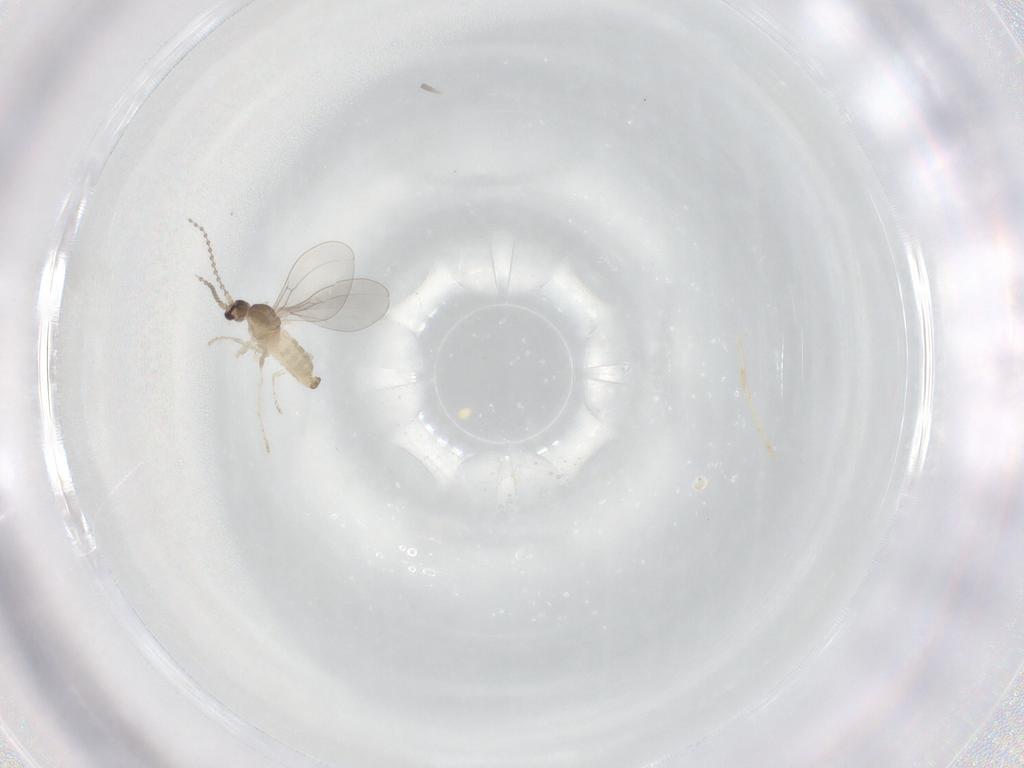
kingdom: Animalia
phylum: Arthropoda
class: Insecta
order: Diptera
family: Cecidomyiidae
